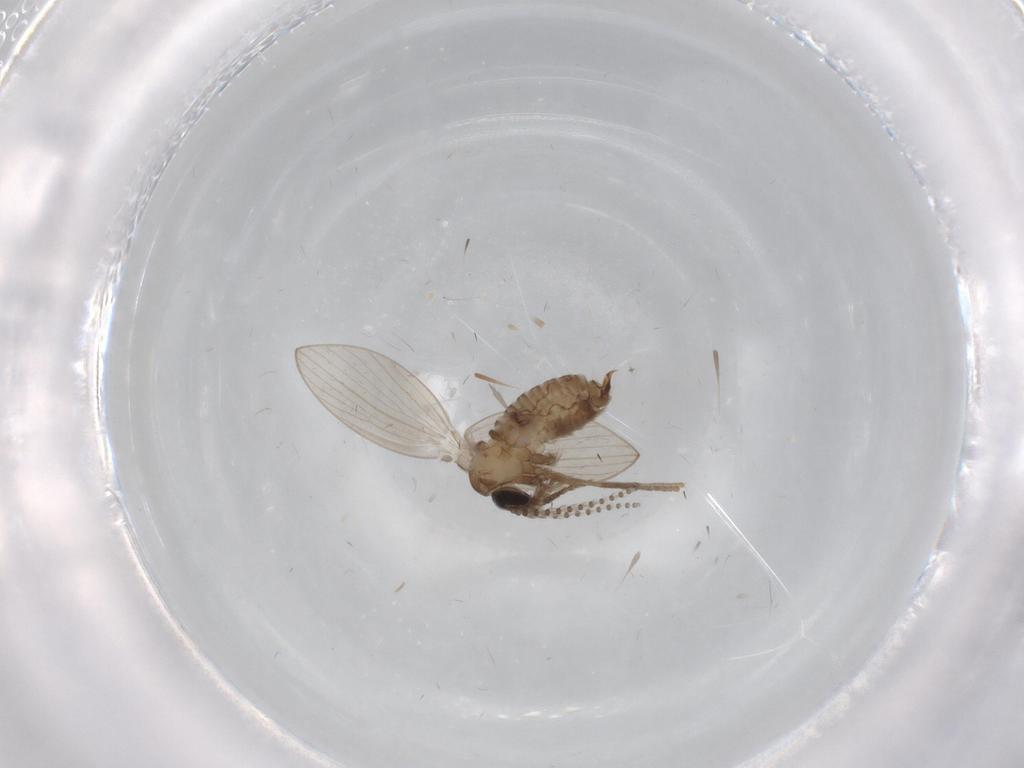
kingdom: Animalia
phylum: Arthropoda
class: Insecta
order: Diptera
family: Psychodidae
